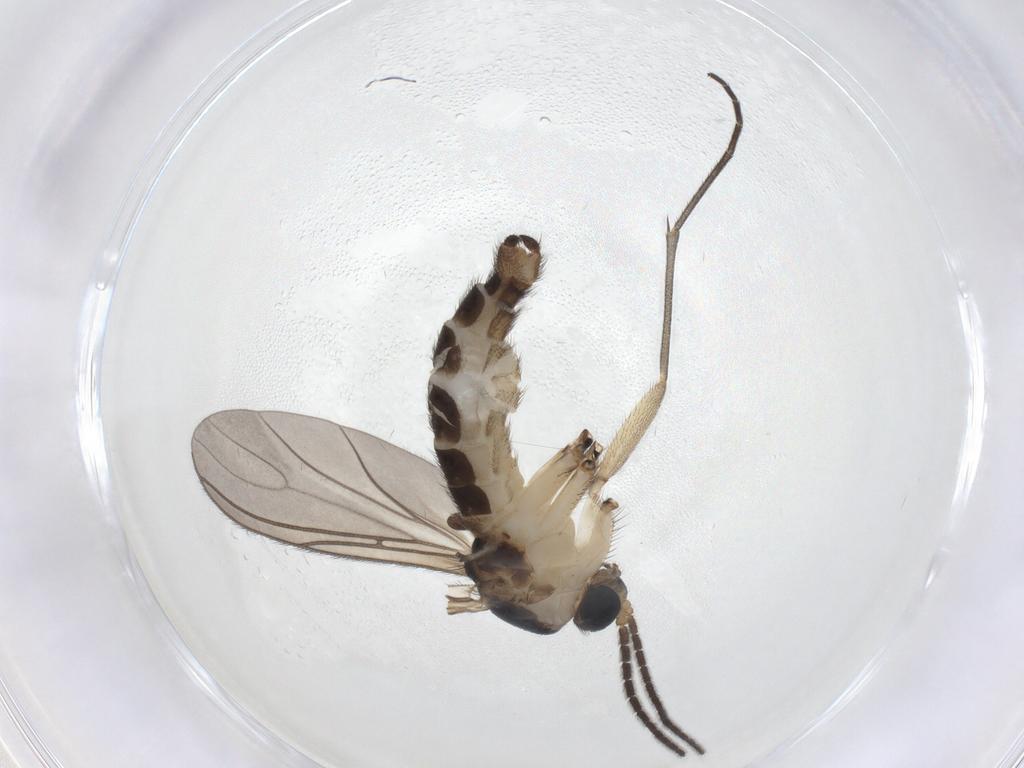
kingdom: Animalia
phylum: Arthropoda
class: Insecta
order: Diptera
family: Sciaridae
